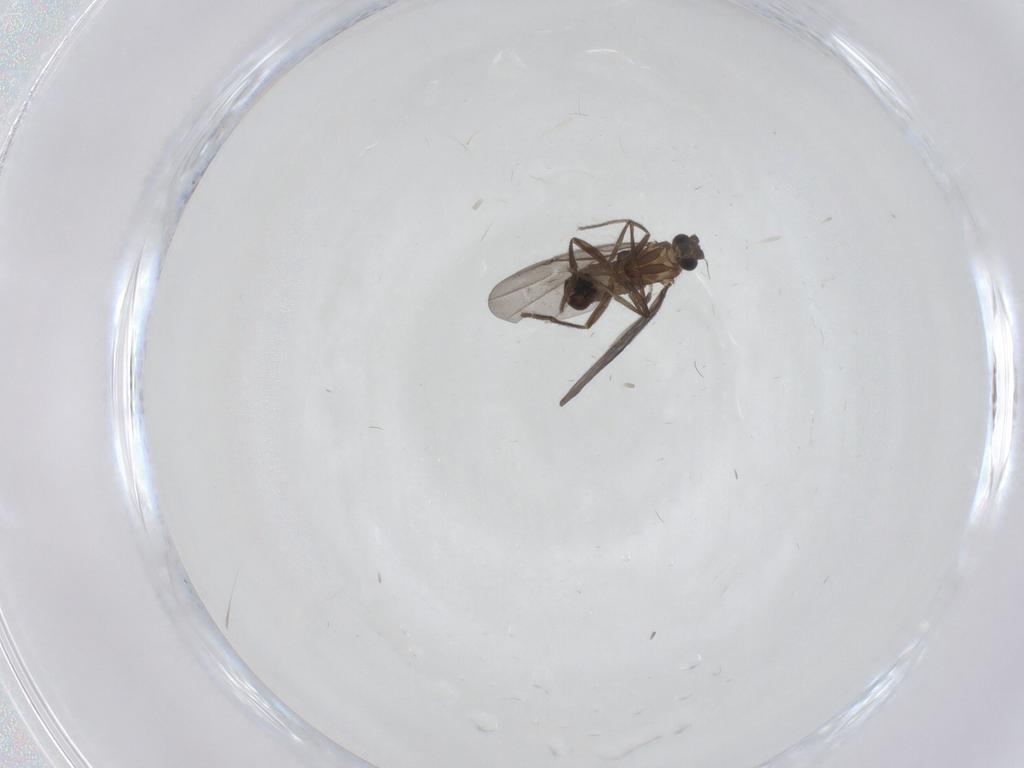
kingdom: Animalia
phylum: Arthropoda
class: Insecta
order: Diptera
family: Phoridae
